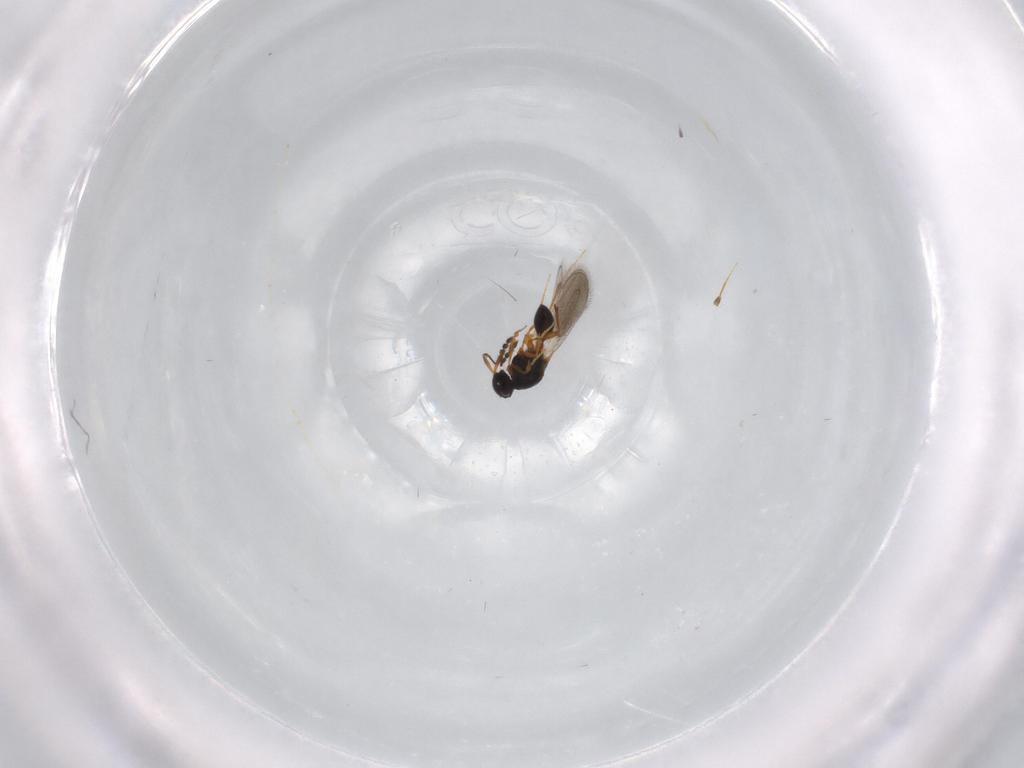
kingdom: Animalia
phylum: Arthropoda
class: Insecta
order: Hymenoptera
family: Platygastridae
